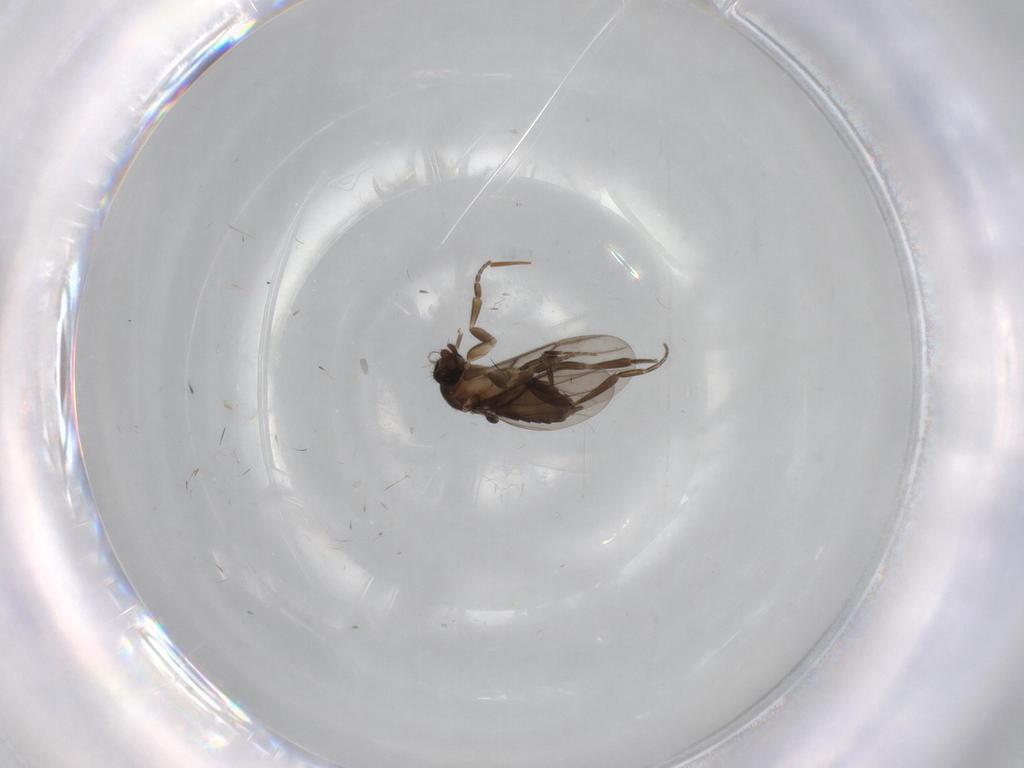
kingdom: Animalia
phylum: Arthropoda
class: Insecta
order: Diptera
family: Phoridae
